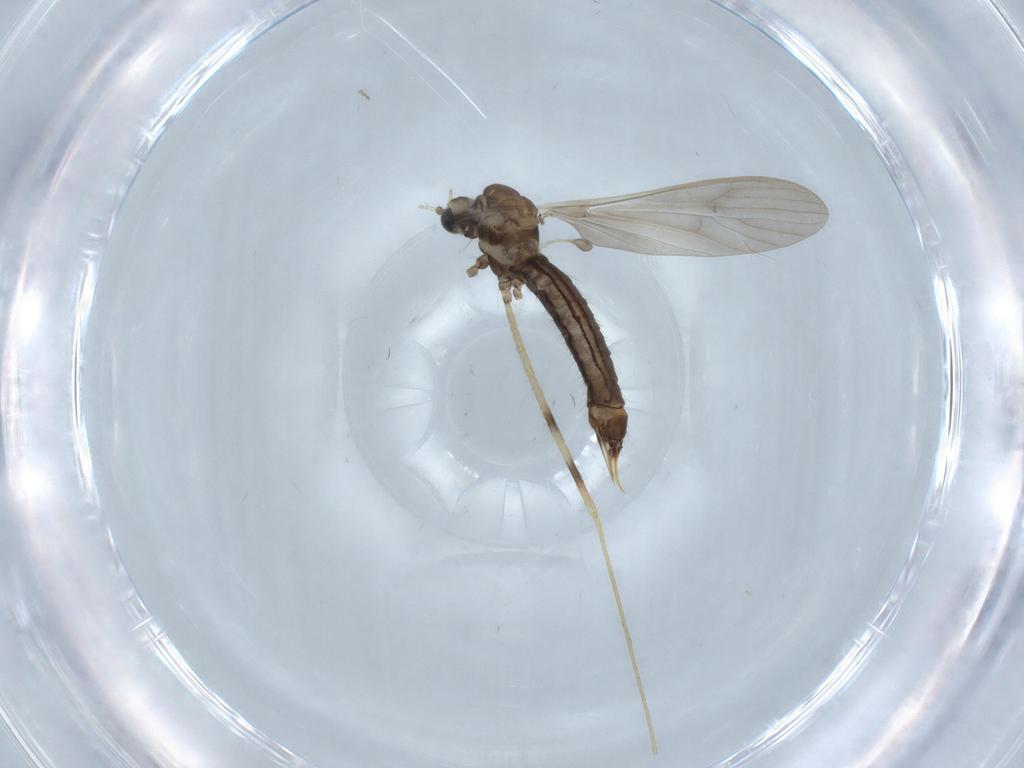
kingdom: Animalia
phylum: Arthropoda
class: Insecta
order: Diptera
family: Limoniidae
